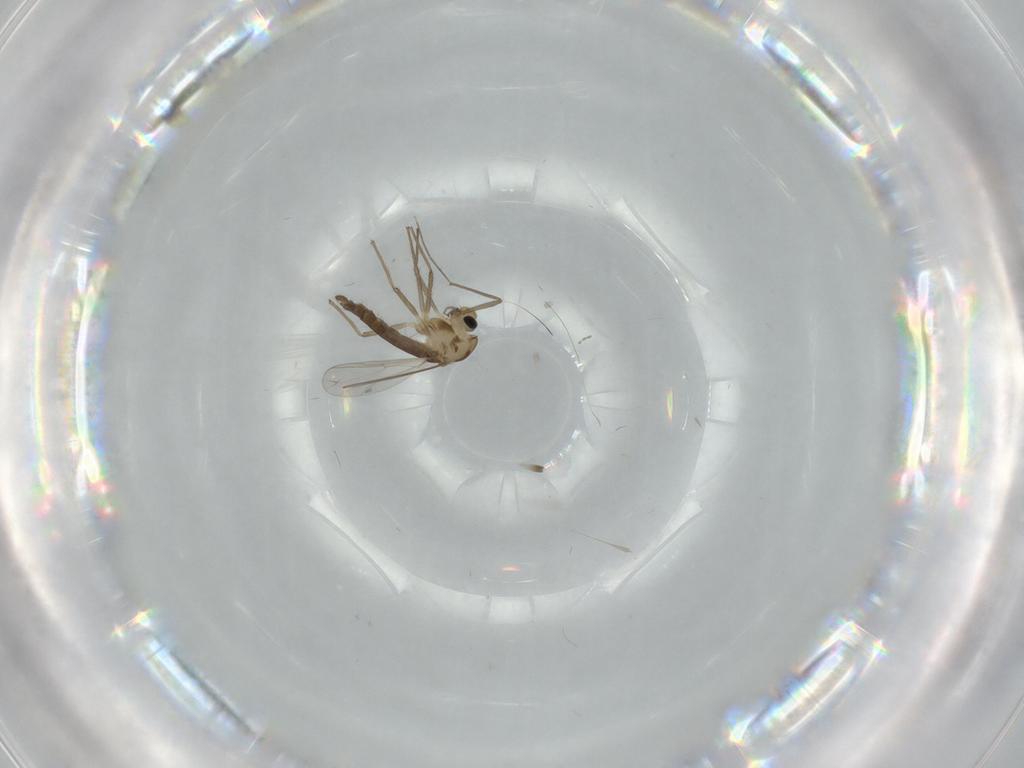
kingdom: Animalia
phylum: Arthropoda
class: Insecta
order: Diptera
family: Chironomidae
